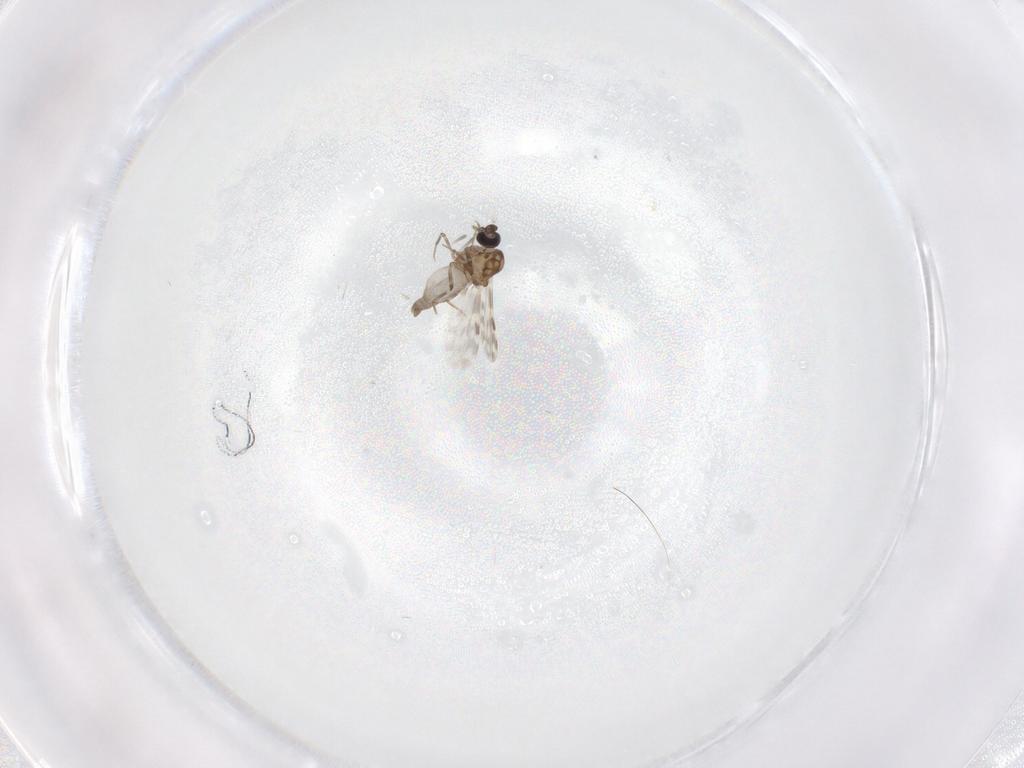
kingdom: Animalia
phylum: Arthropoda
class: Insecta
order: Diptera
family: Ceratopogonidae
